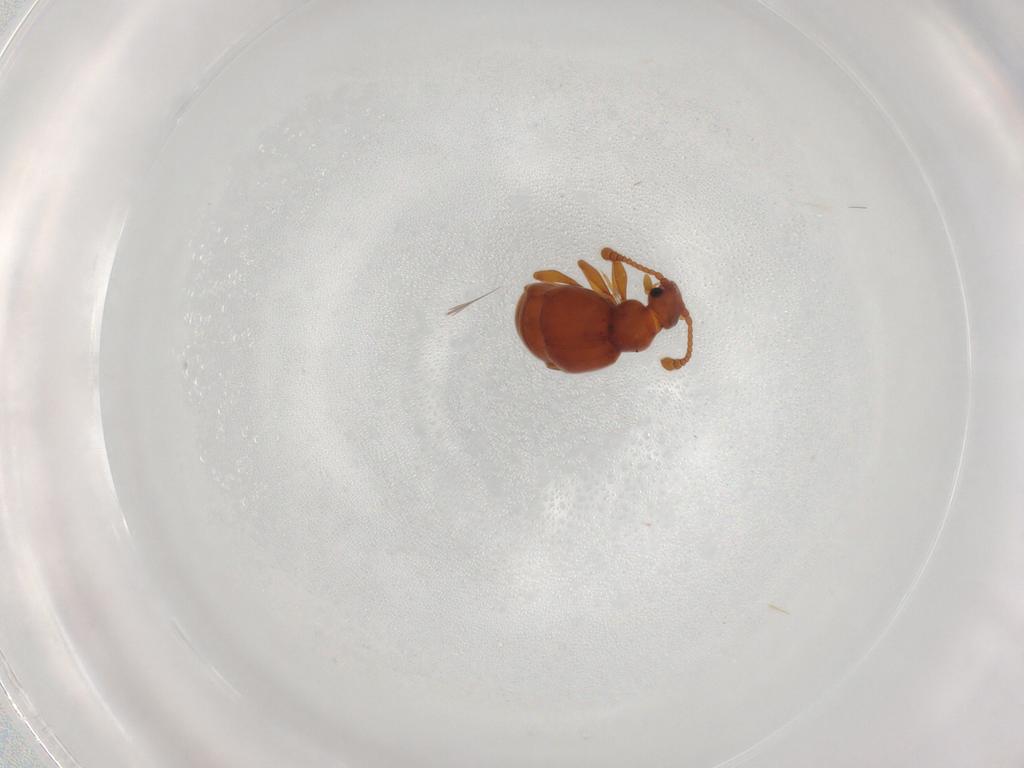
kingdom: Animalia
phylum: Arthropoda
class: Insecta
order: Coleoptera
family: Staphylinidae
